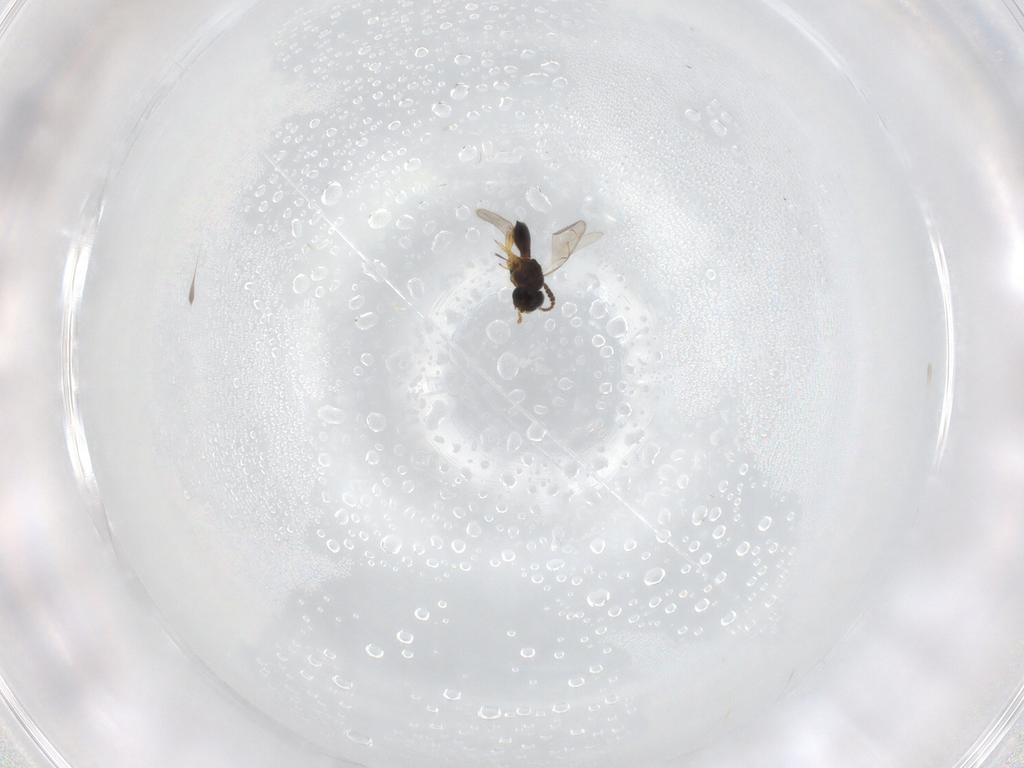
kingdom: Animalia
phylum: Arthropoda
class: Insecta
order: Hymenoptera
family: Scelionidae
